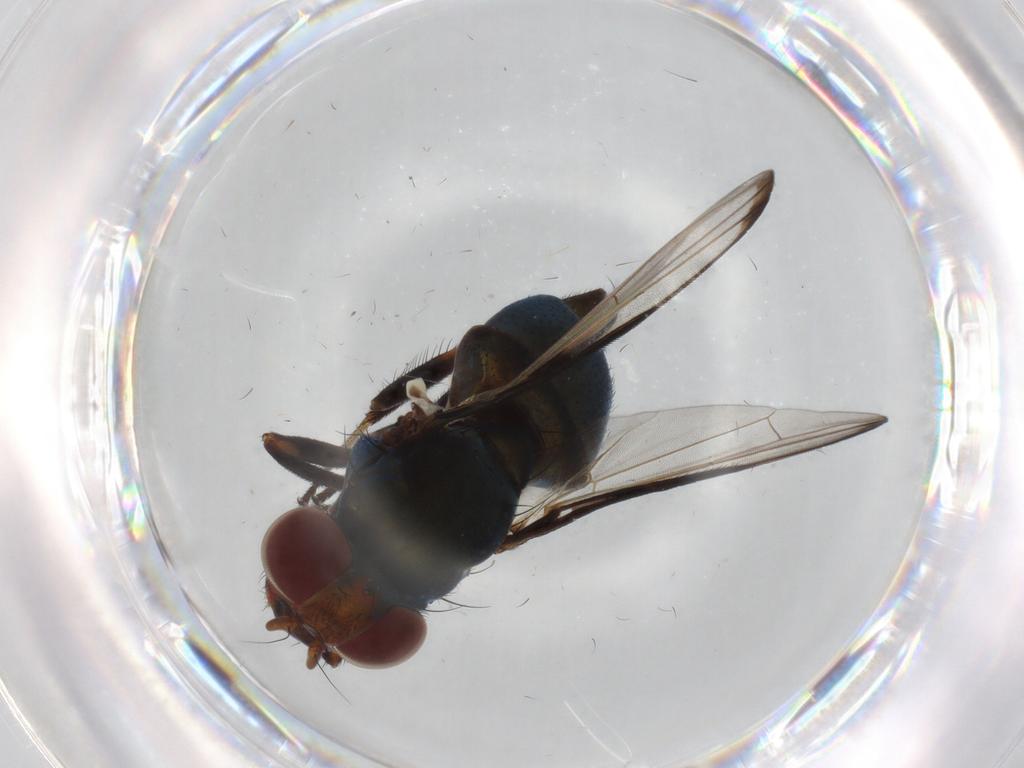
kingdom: Animalia
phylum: Arthropoda
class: Insecta
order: Diptera
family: Ulidiidae
